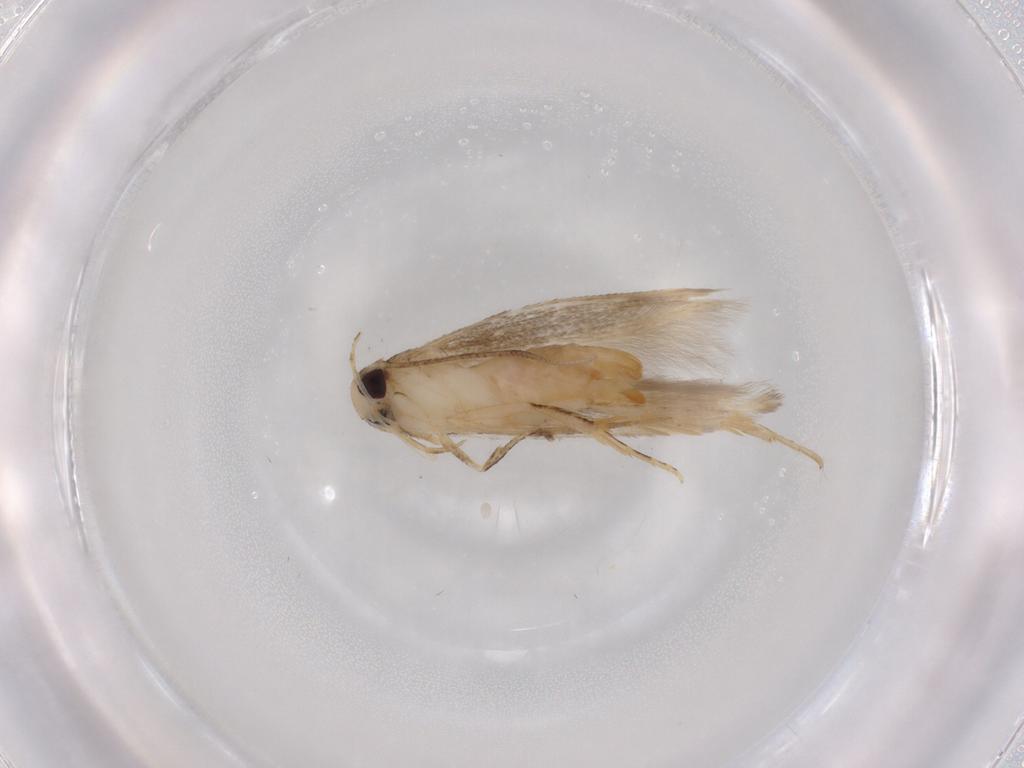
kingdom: Animalia
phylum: Arthropoda
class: Insecta
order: Lepidoptera
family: Cosmopterigidae
